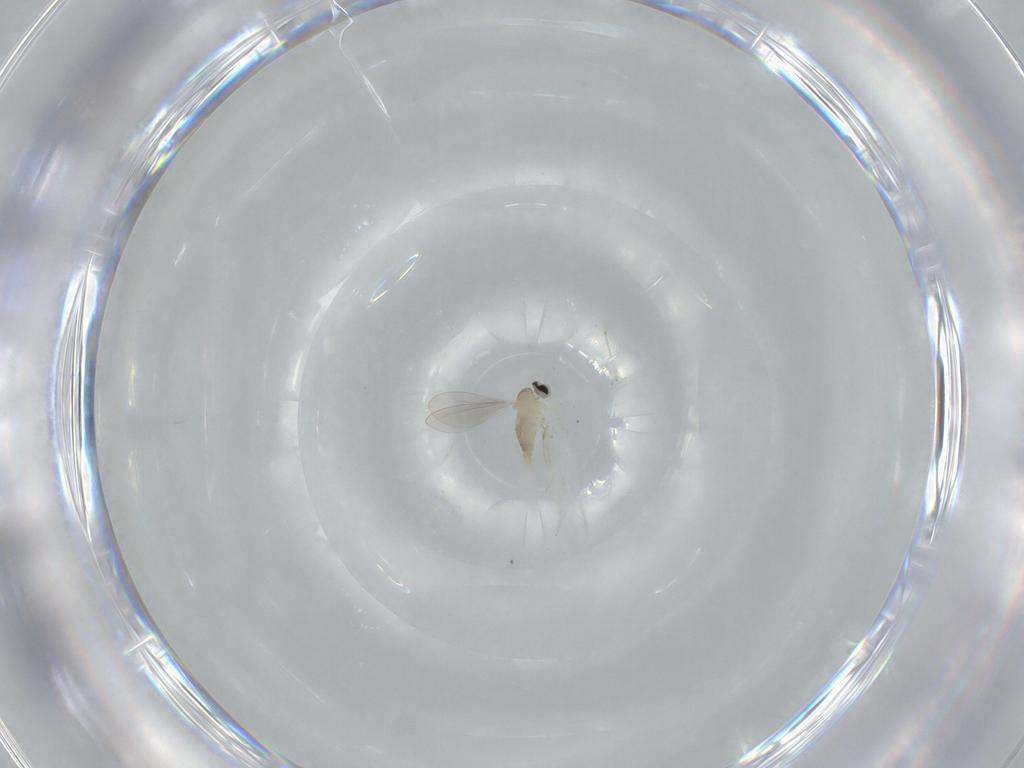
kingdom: Animalia
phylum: Arthropoda
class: Insecta
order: Diptera
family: Cecidomyiidae
